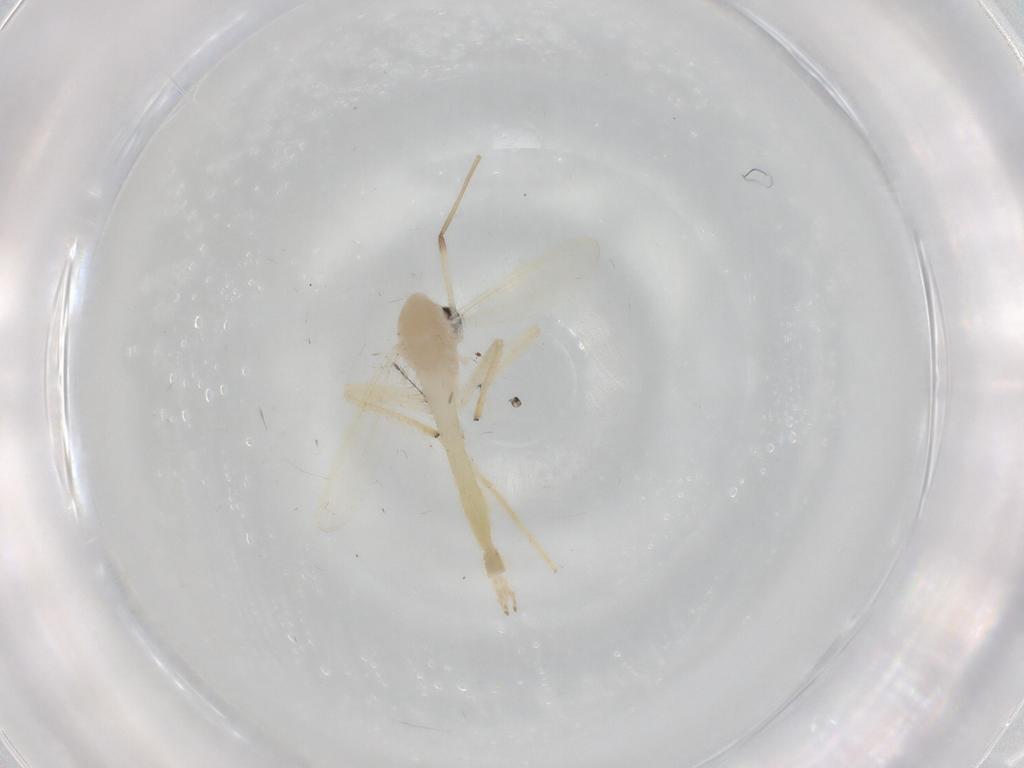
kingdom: Animalia
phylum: Arthropoda
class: Insecta
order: Diptera
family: Chironomidae
